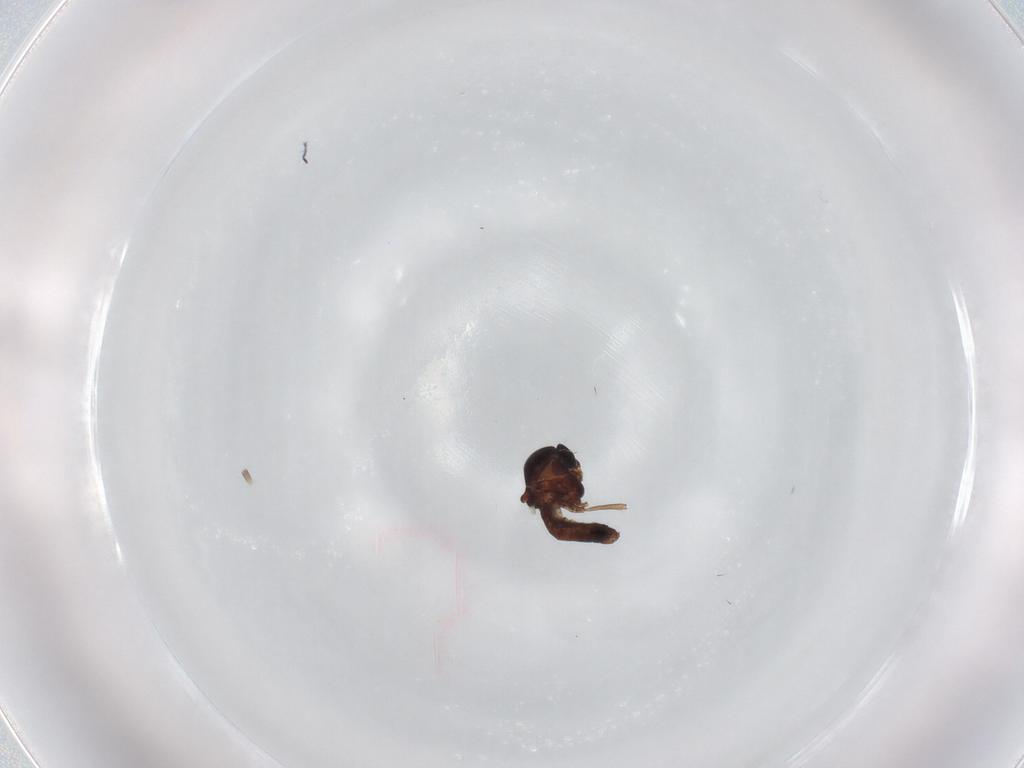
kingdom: Animalia
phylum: Arthropoda
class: Insecta
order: Diptera
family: Ceratopogonidae
